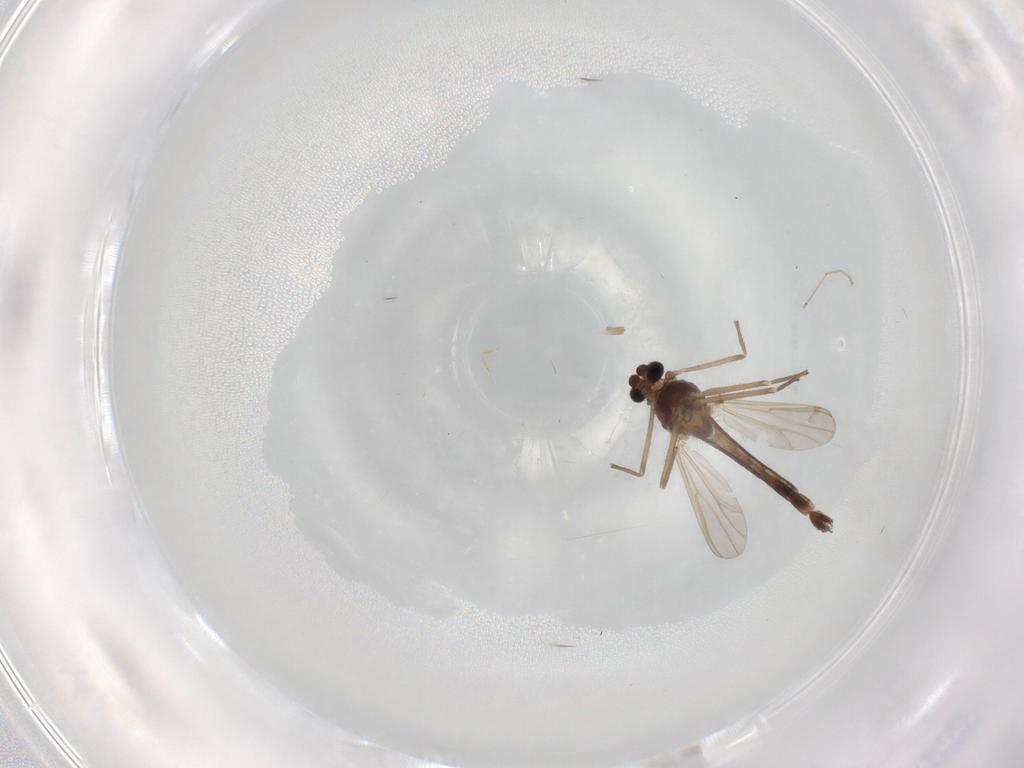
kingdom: Animalia
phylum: Arthropoda
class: Insecta
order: Diptera
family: Chironomidae
